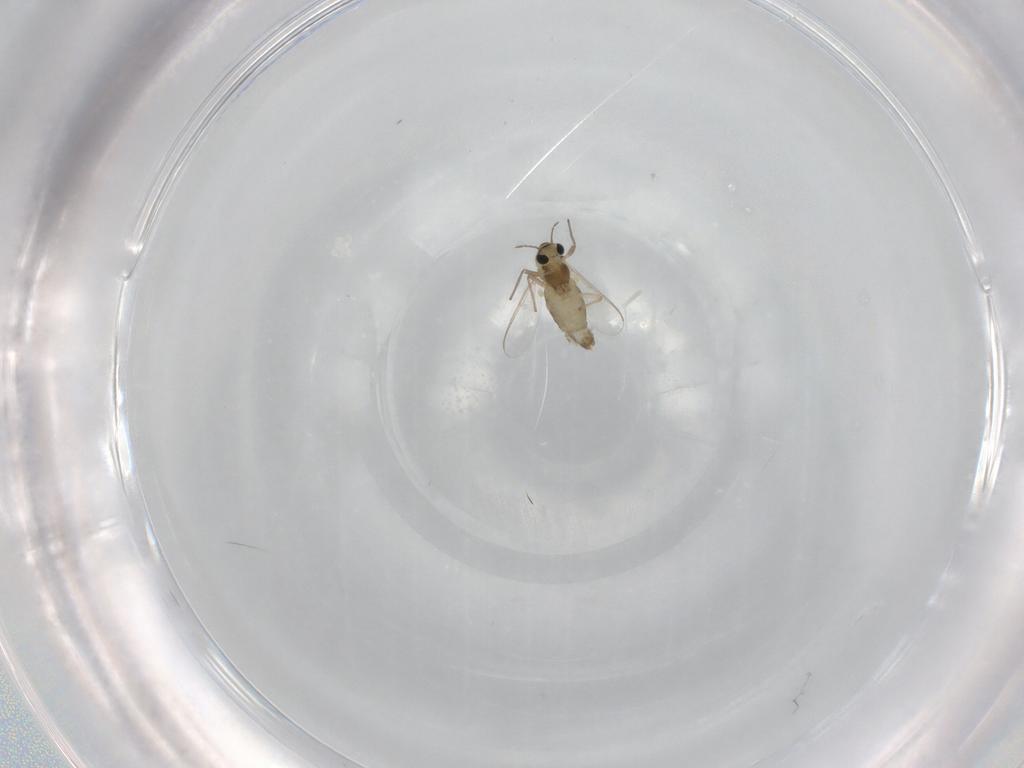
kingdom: Animalia
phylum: Arthropoda
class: Insecta
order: Diptera
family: Chironomidae
